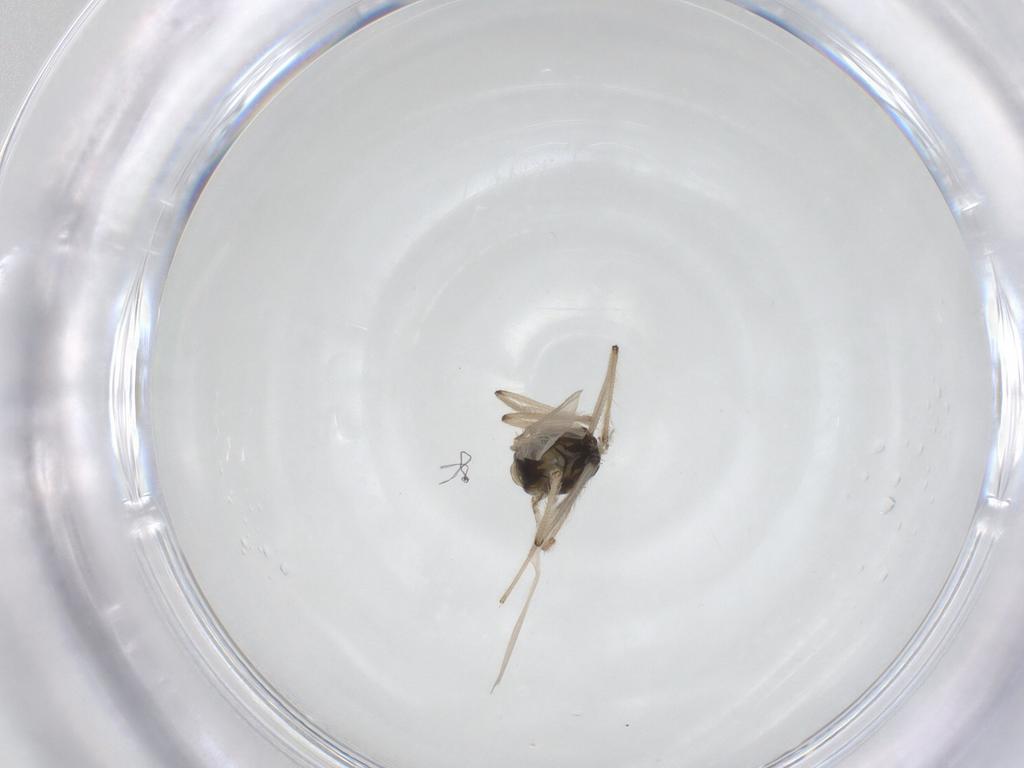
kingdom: Animalia
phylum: Arthropoda
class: Insecta
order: Diptera
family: Chironomidae
